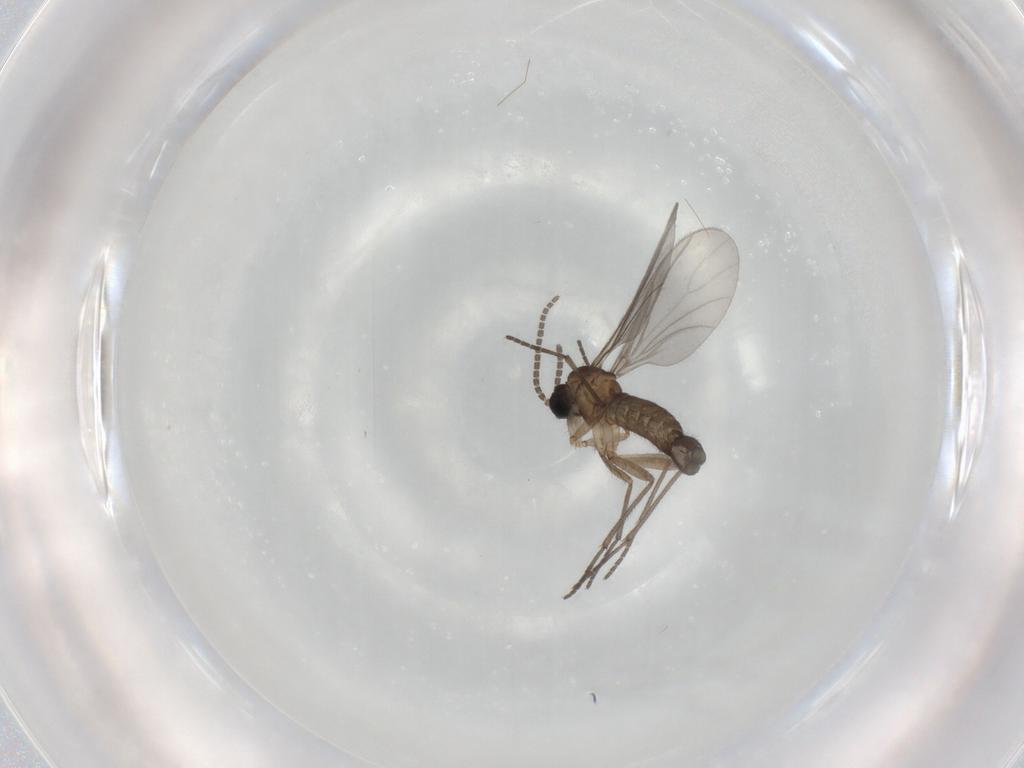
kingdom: Animalia
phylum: Arthropoda
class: Insecta
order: Diptera
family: Sciaridae
